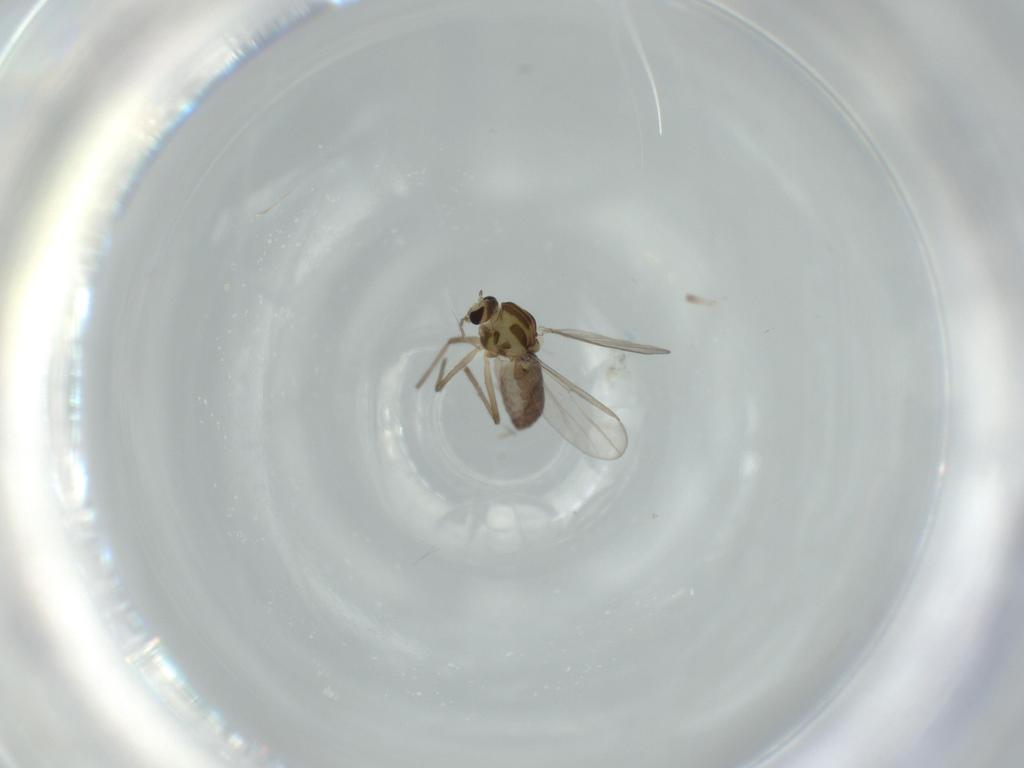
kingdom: Animalia
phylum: Arthropoda
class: Insecta
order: Diptera
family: Chironomidae
